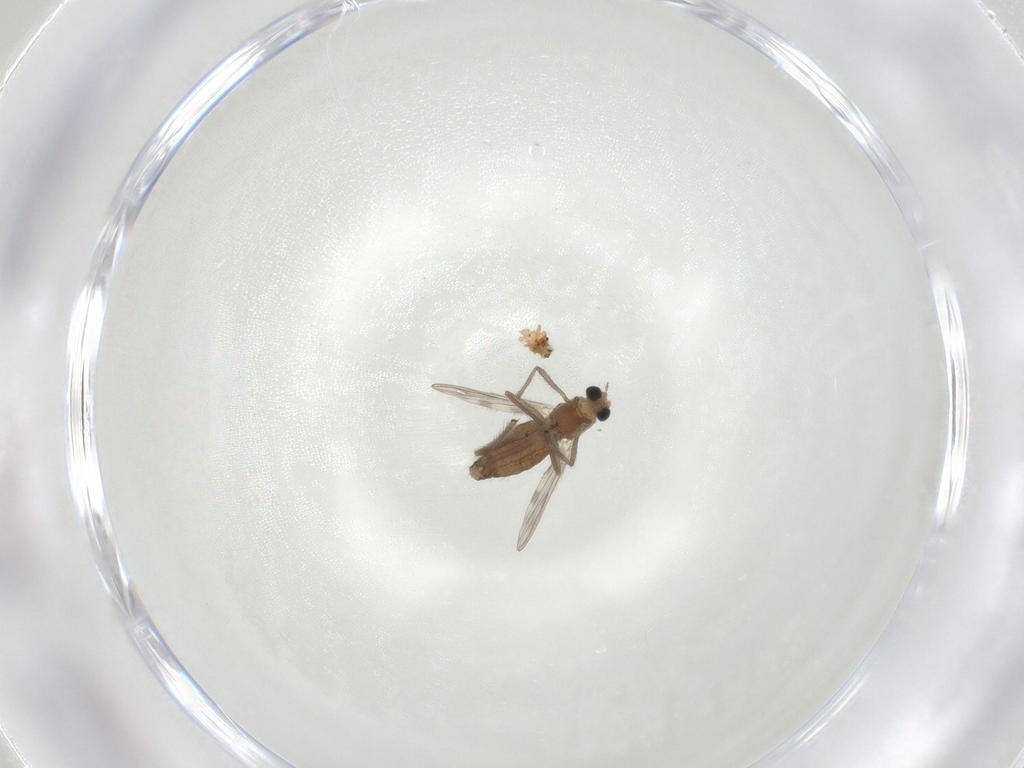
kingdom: Animalia
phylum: Arthropoda
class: Insecta
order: Diptera
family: Chironomidae
